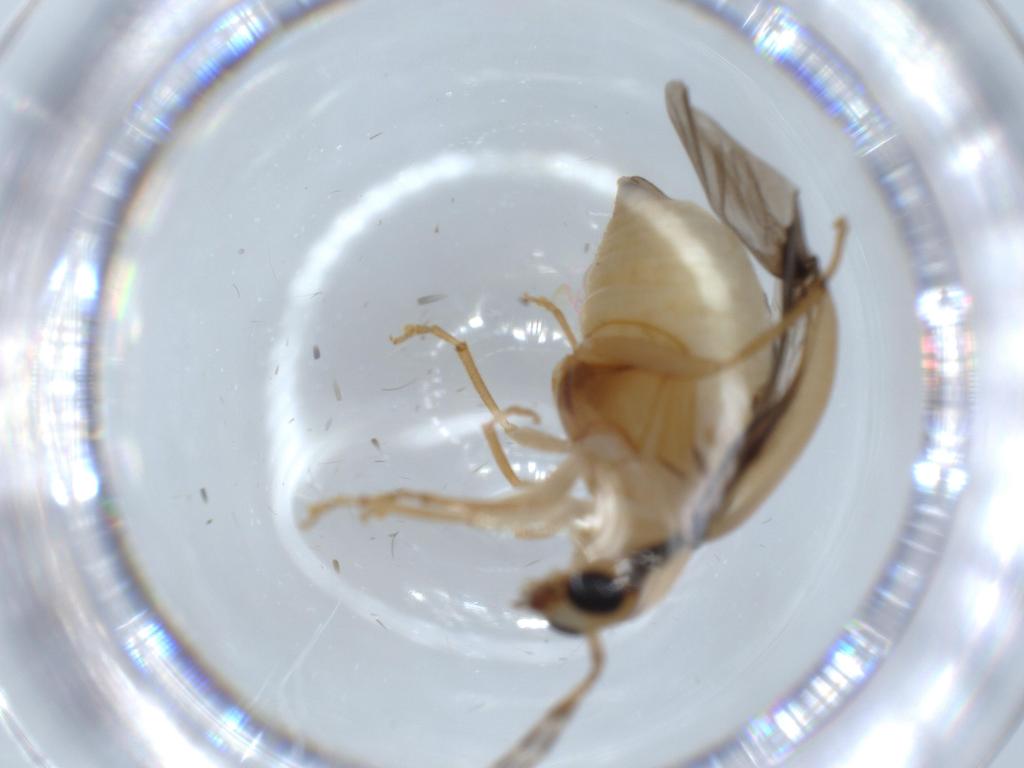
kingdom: Animalia
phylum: Arthropoda
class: Insecta
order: Coleoptera
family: Chrysomelidae
